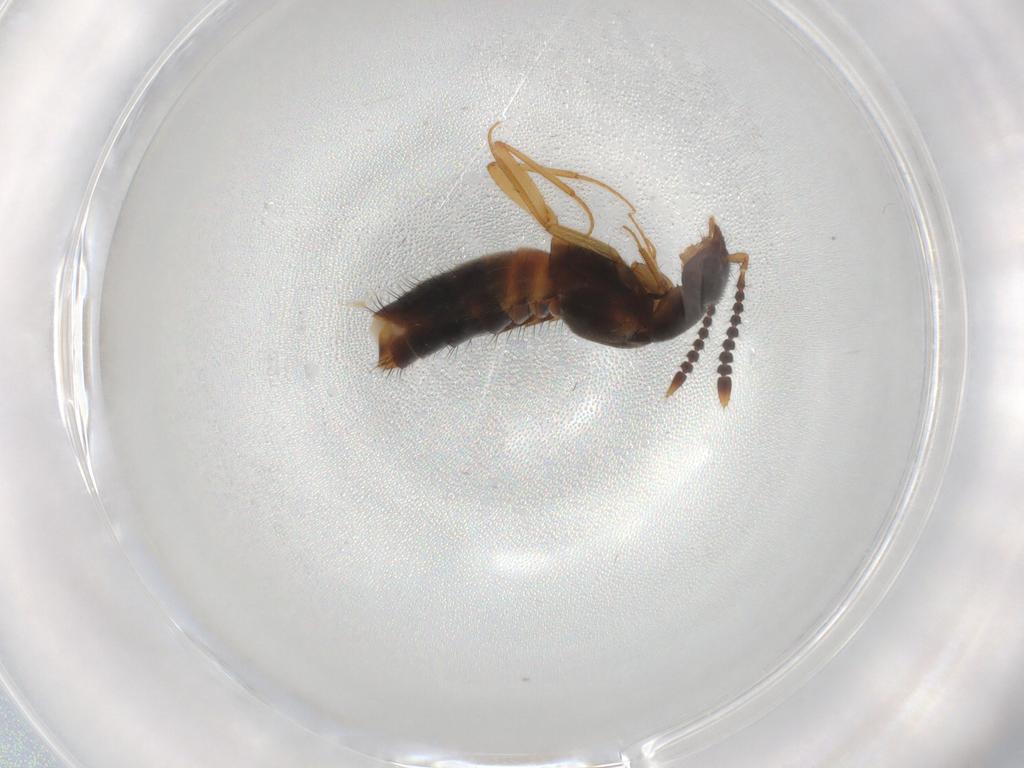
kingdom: Animalia
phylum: Arthropoda
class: Insecta
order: Coleoptera
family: Staphylinidae
